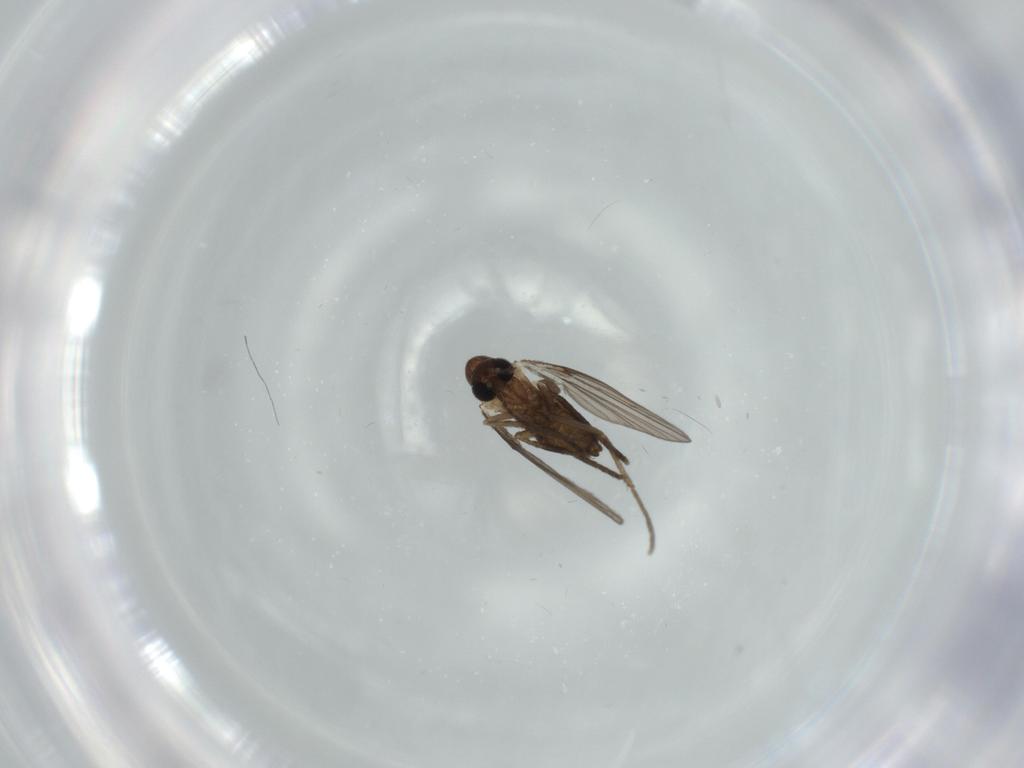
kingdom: Animalia
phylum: Arthropoda
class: Insecta
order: Diptera
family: Psychodidae
